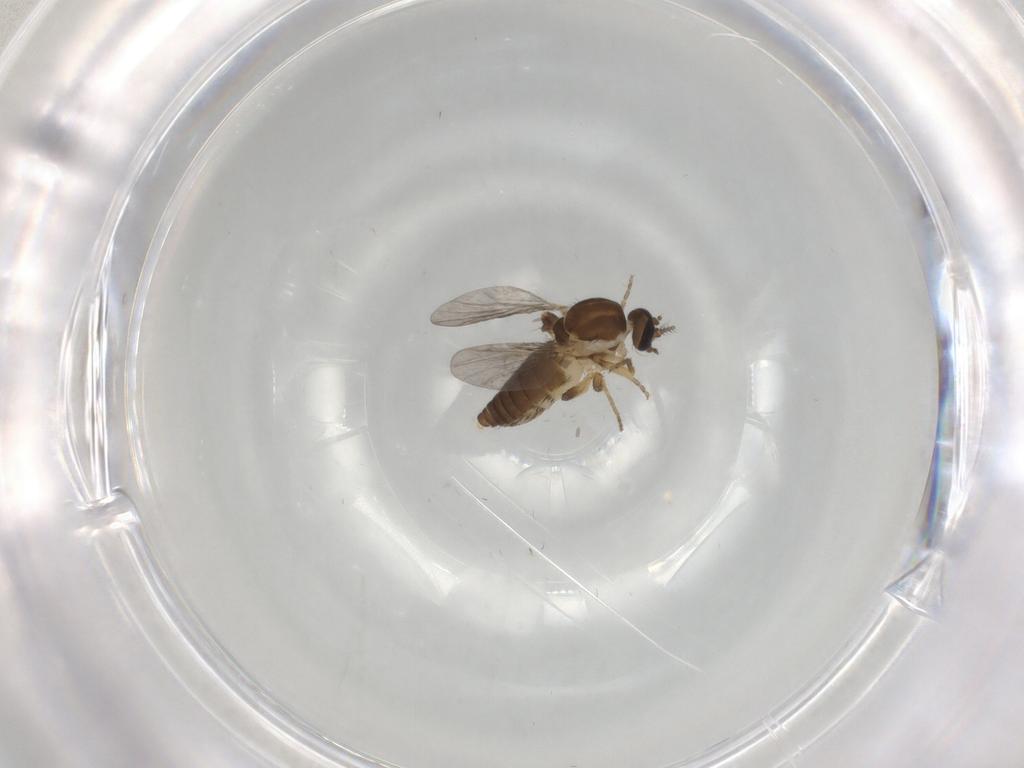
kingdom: Animalia
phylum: Arthropoda
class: Insecta
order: Diptera
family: Ceratopogonidae
